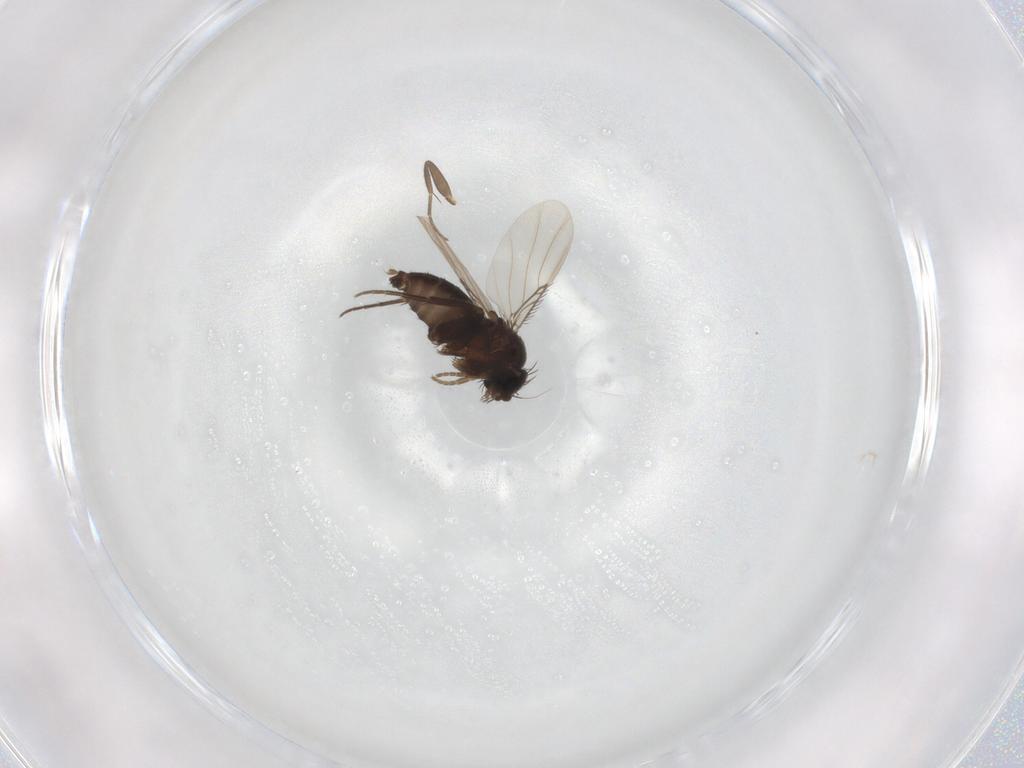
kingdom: Animalia
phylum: Arthropoda
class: Insecta
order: Diptera
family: Phoridae
